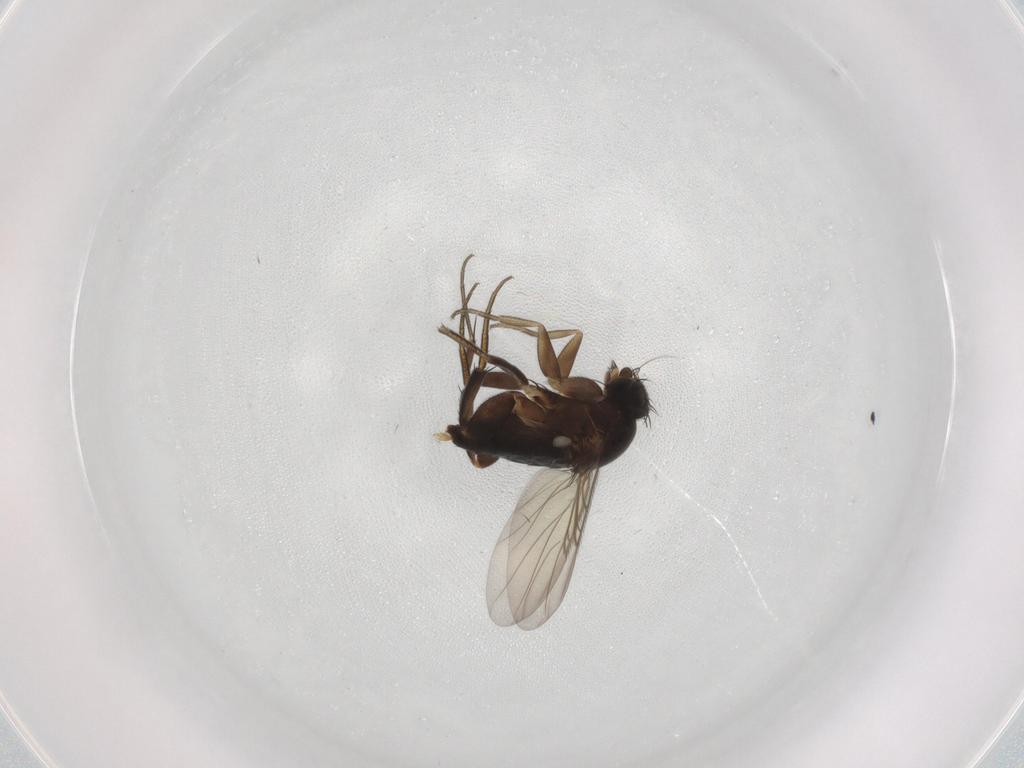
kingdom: Animalia
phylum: Arthropoda
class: Insecta
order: Diptera
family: Phoridae
